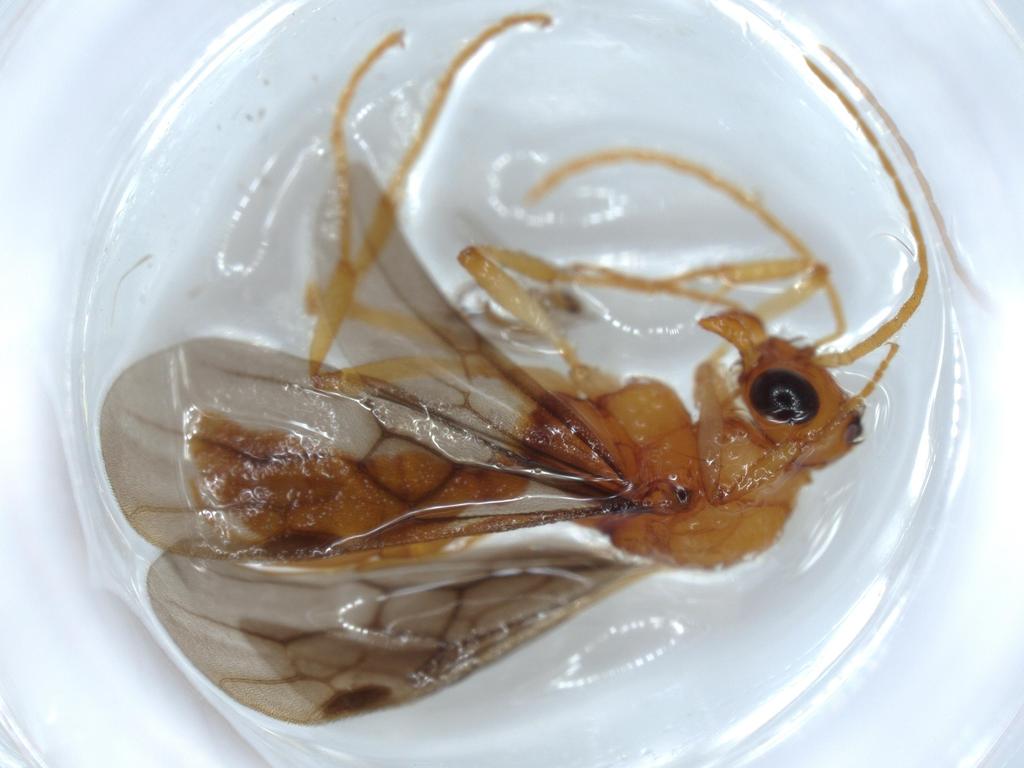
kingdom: Animalia
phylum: Arthropoda
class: Insecta
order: Hymenoptera
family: Formicidae
